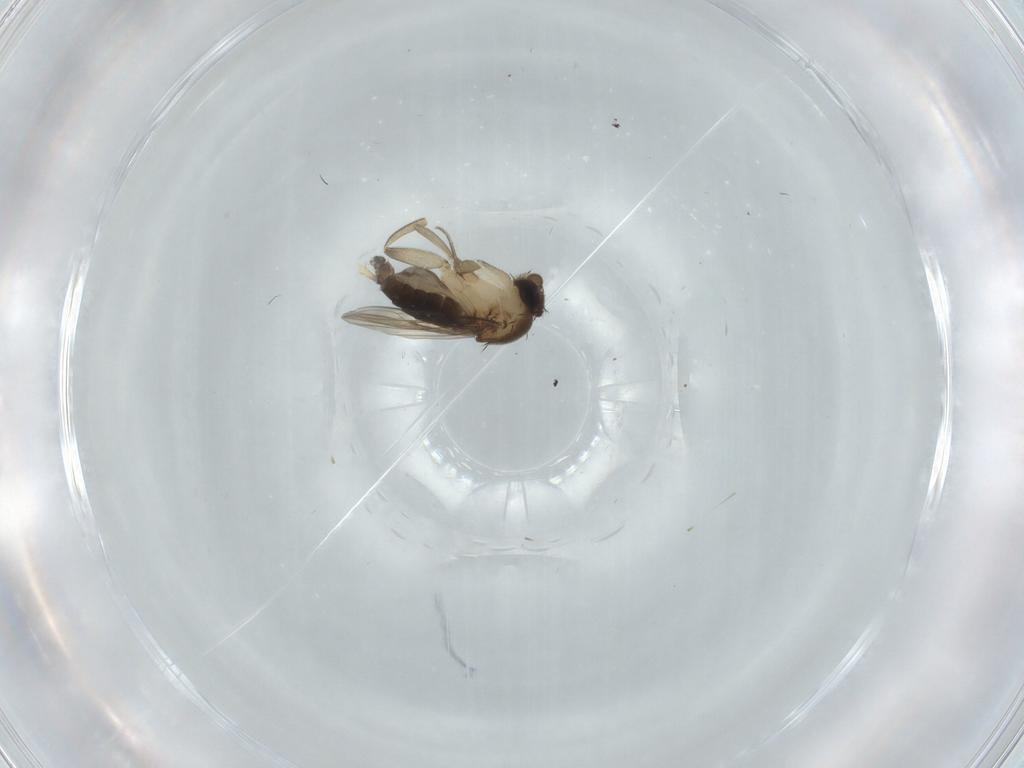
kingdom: Animalia
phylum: Arthropoda
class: Insecta
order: Diptera
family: Phoridae
